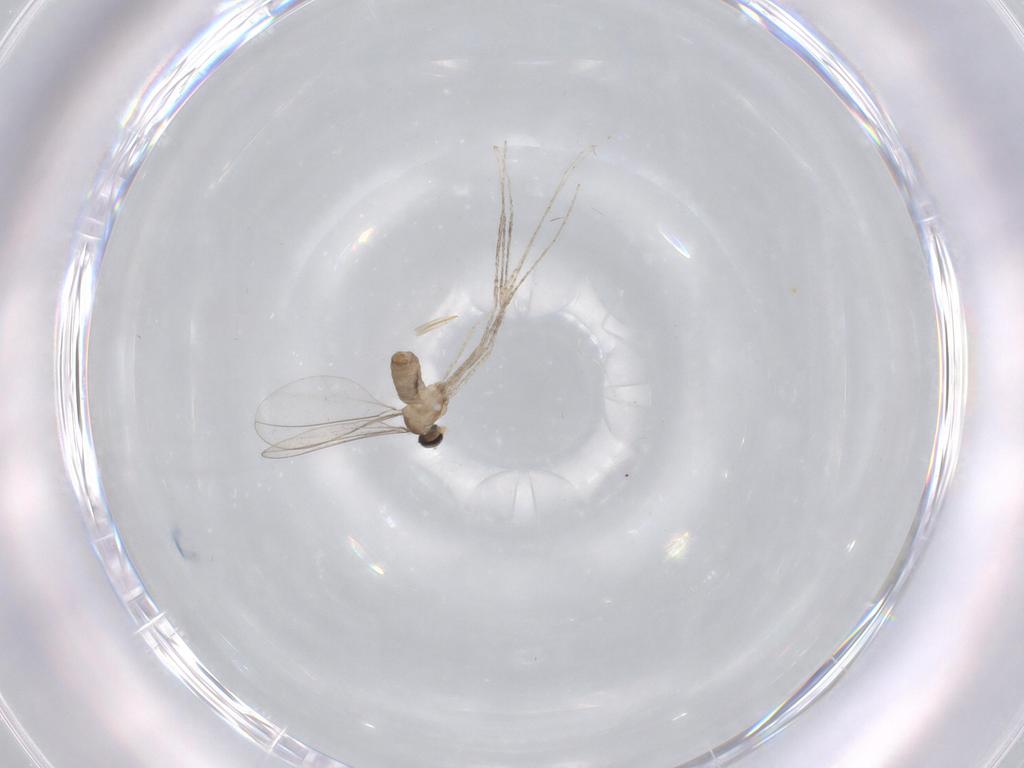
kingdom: Animalia
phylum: Arthropoda
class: Insecta
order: Diptera
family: Cecidomyiidae
